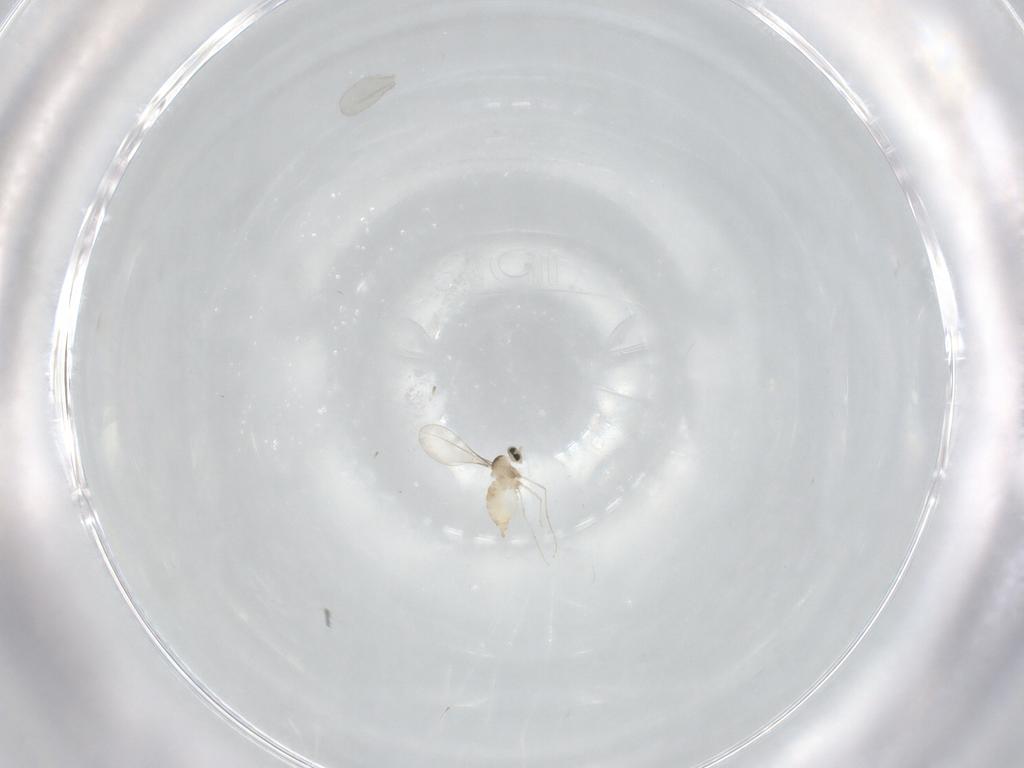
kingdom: Animalia
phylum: Arthropoda
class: Insecta
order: Diptera
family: Cecidomyiidae
